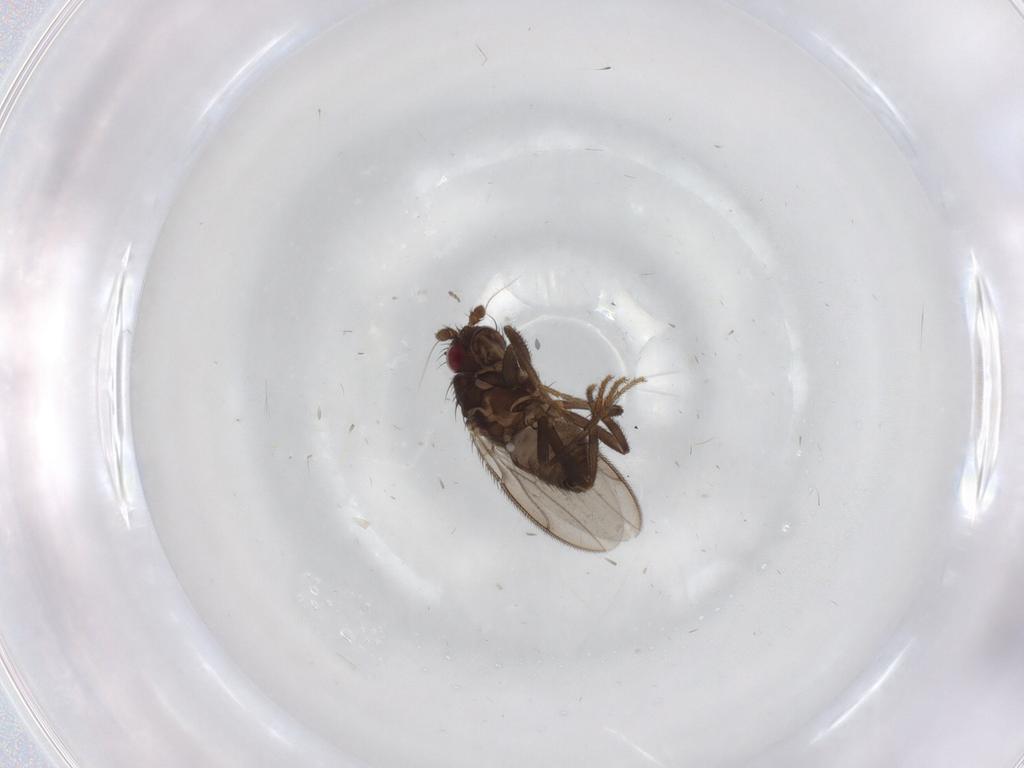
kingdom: Animalia
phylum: Arthropoda
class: Insecta
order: Diptera
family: Sphaeroceridae
